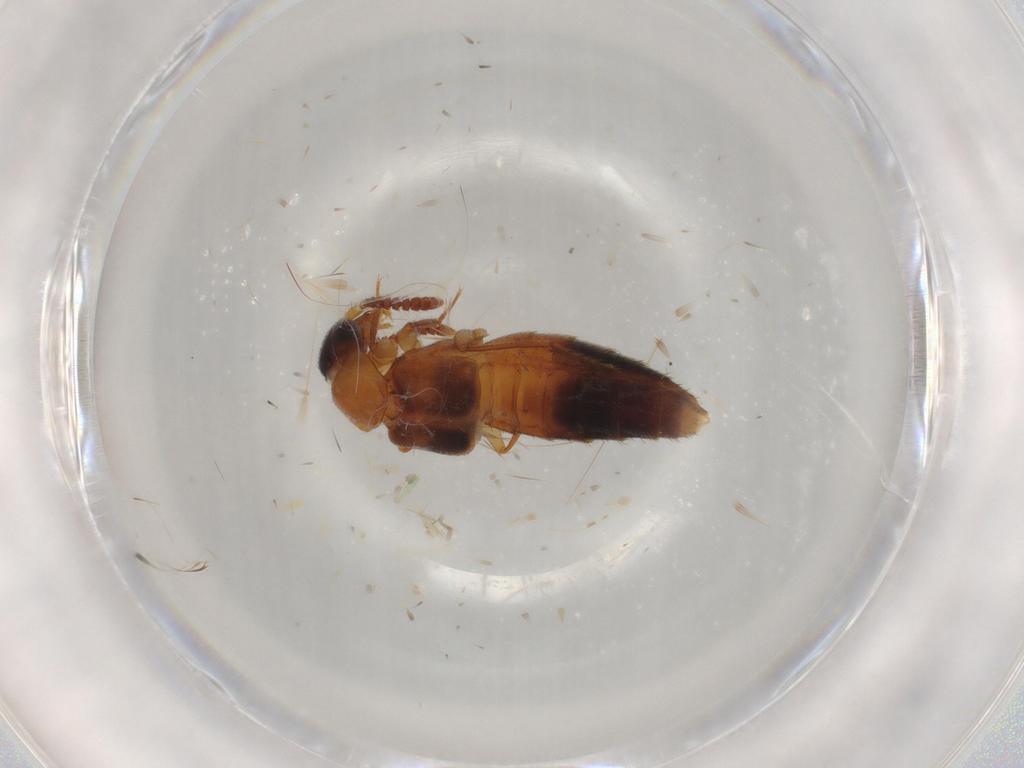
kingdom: Animalia
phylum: Arthropoda
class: Insecta
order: Coleoptera
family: Staphylinidae
